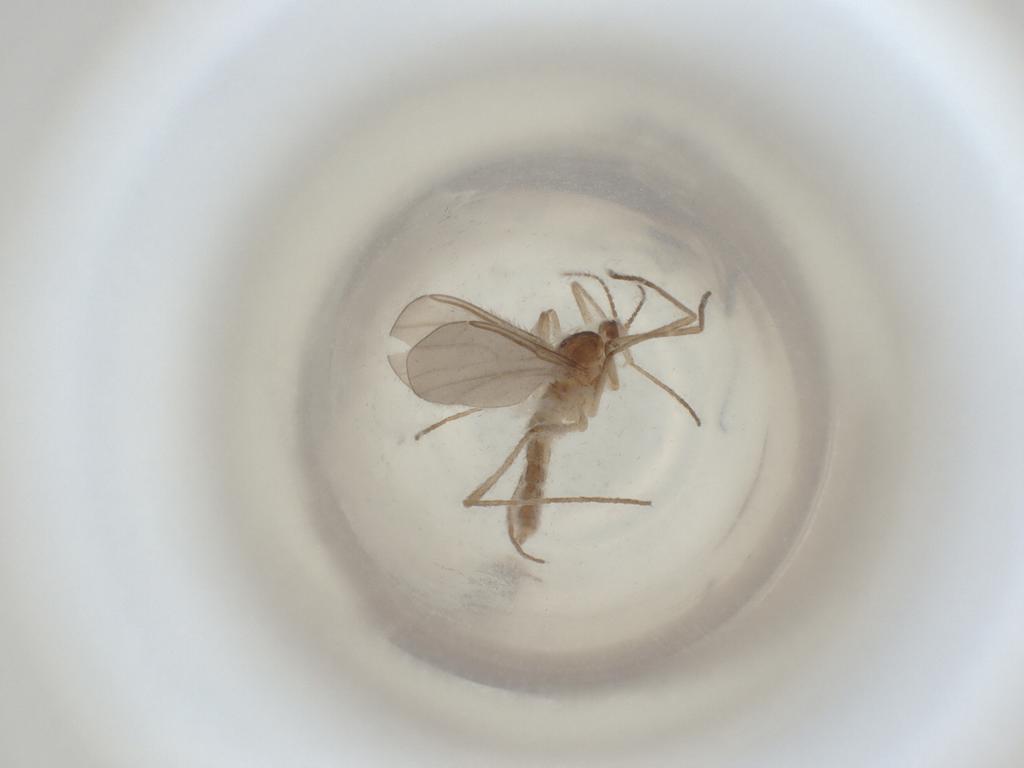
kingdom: Animalia
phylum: Arthropoda
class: Insecta
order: Diptera
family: Cecidomyiidae
